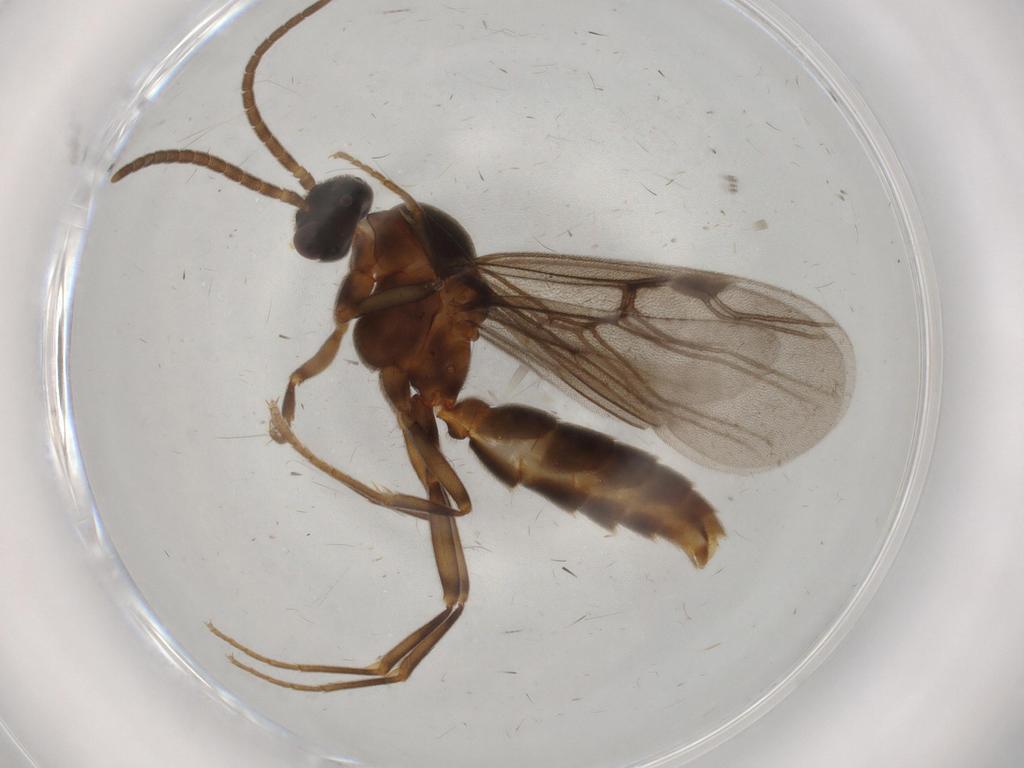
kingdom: Animalia
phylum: Arthropoda
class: Insecta
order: Hymenoptera
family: Formicidae
